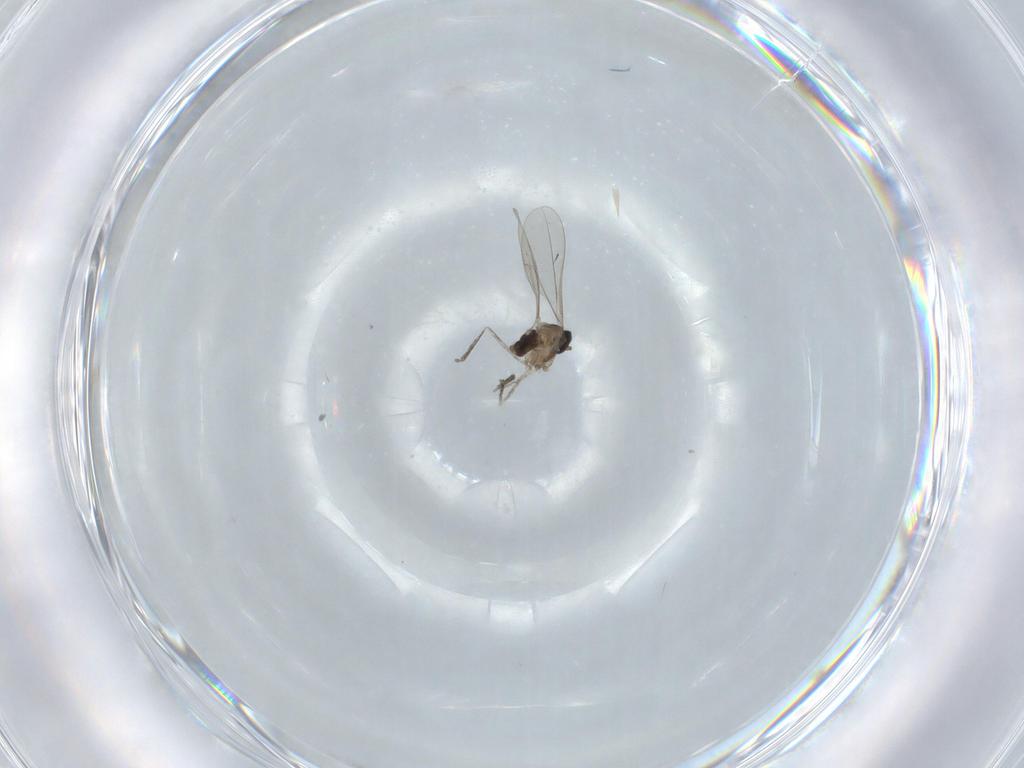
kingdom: Animalia
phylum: Arthropoda
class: Insecta
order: Diptera
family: Cecidomyiidae
